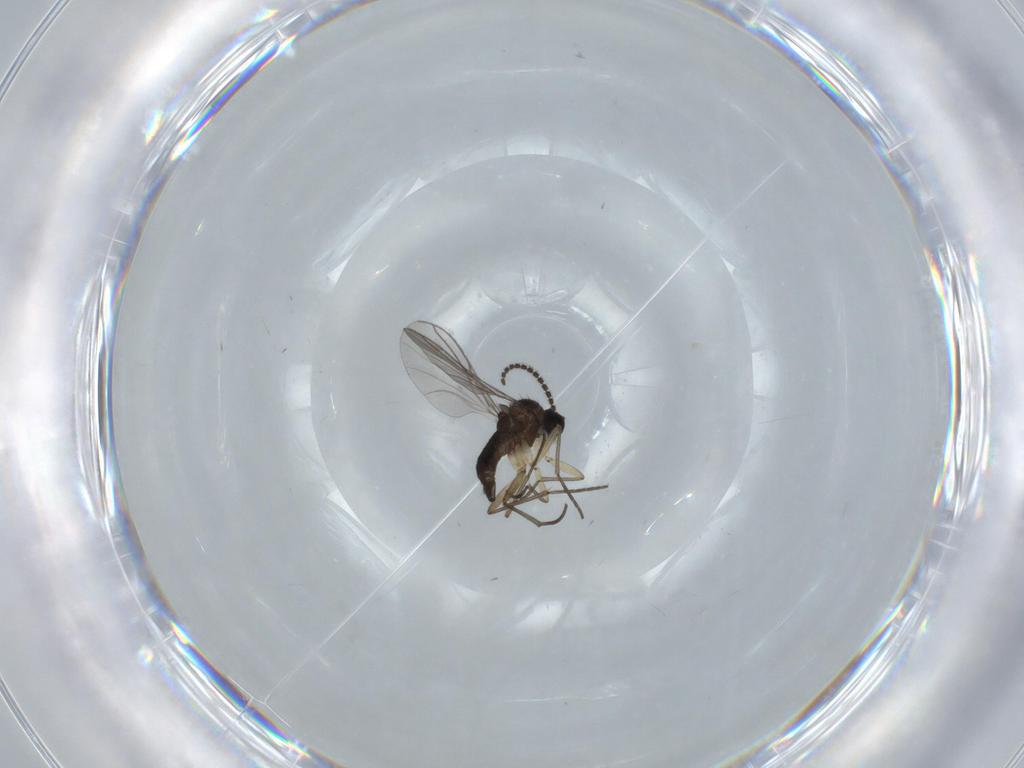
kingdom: Animalia
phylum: Arthropoda
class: Insecta
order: Diptera
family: Sciaridae
